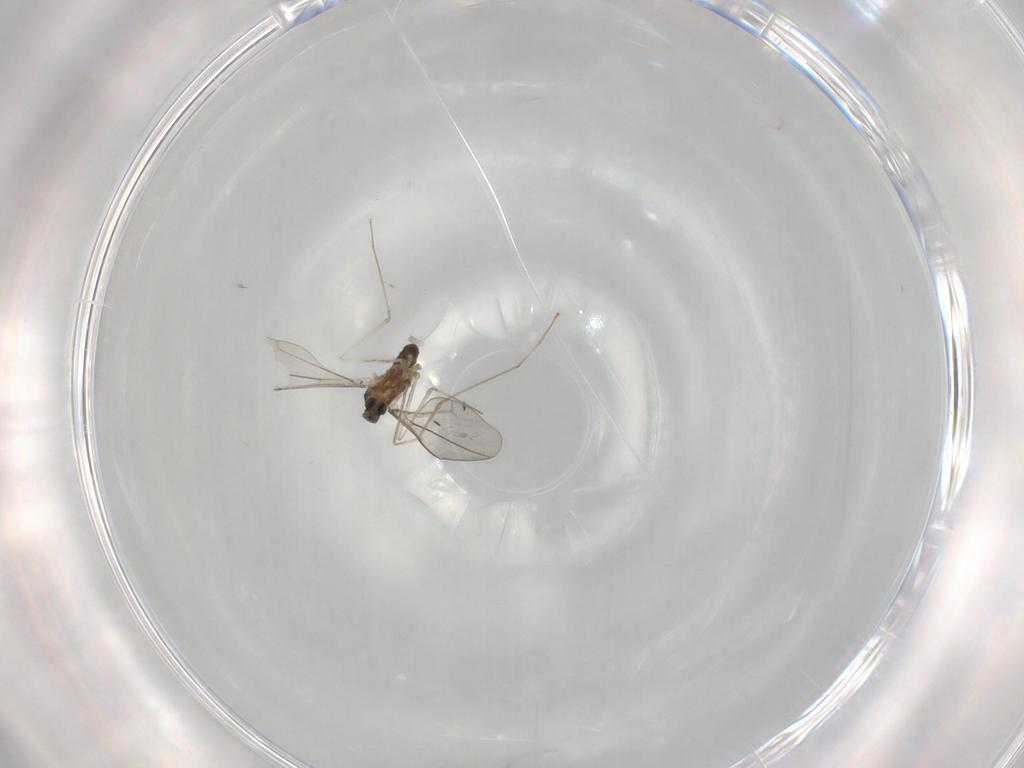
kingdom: Animalia
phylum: Arthropoda
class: Insecta
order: Diptera
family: Cecidomyiidae
